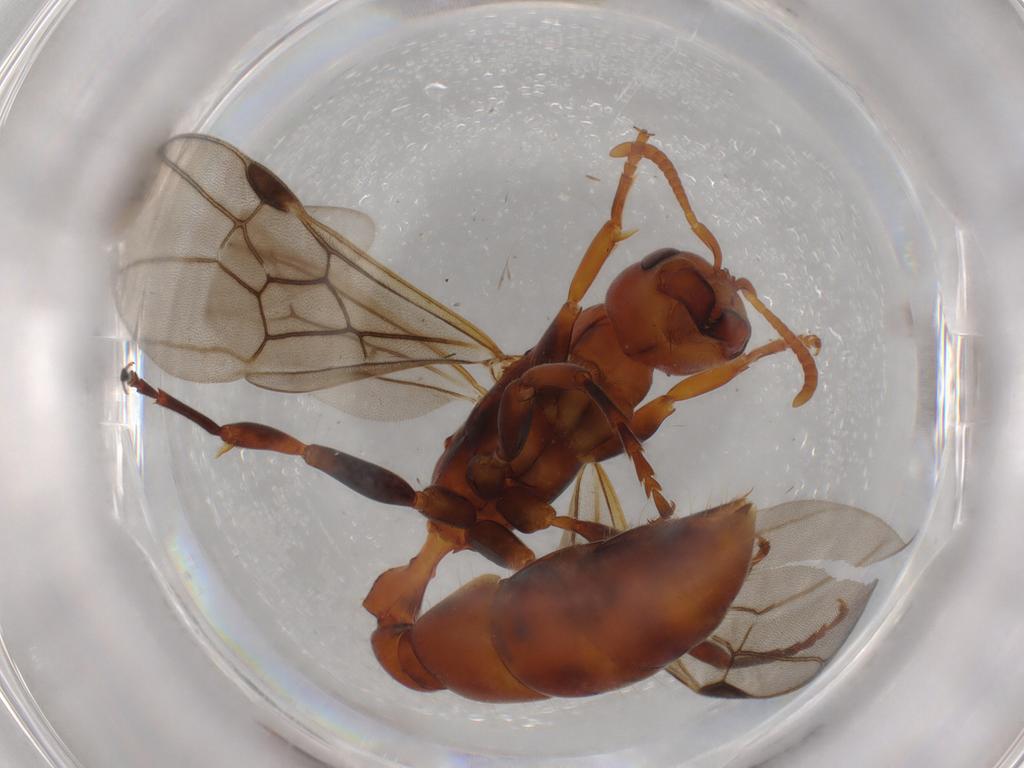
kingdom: Animalia
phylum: Arthropoda
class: Insecta
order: Hymenoptera
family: Formicidae
